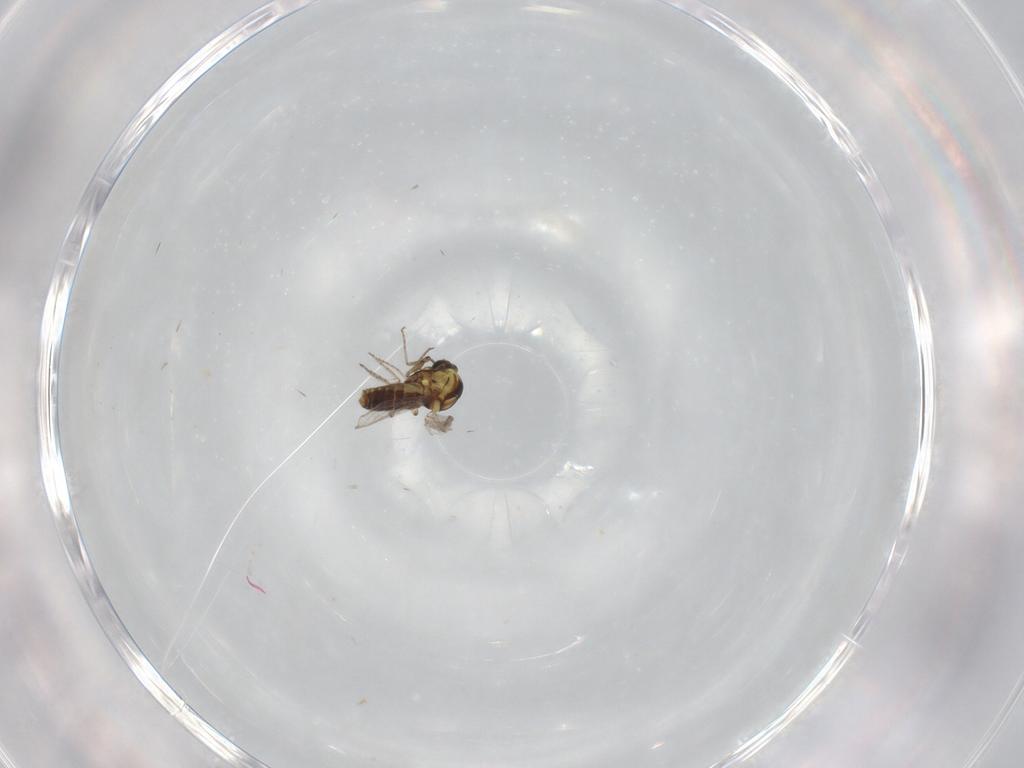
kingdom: Animalia
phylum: Arthropoda
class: Insecta
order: Diptera
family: Ceratopogonidae
